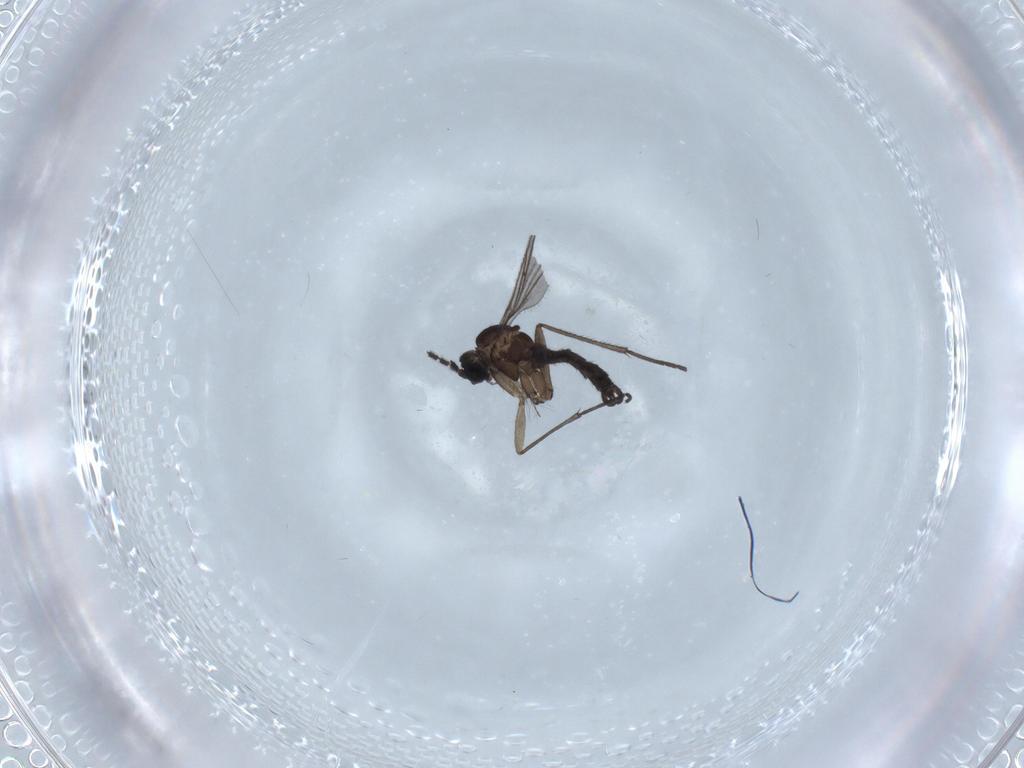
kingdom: Animalia
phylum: Arthropoda
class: Insecta
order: Diptera
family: Sciaridae
